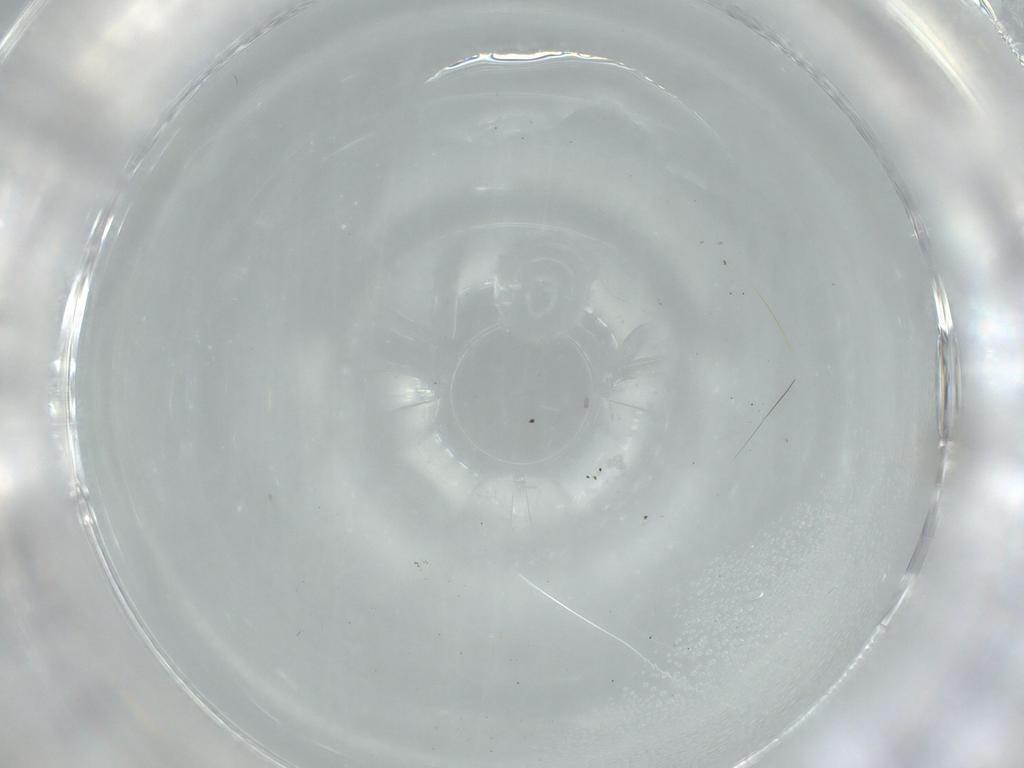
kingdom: Animalia
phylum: Arthropoda
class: Insecta
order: Diptera
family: Cecidomyiidae
